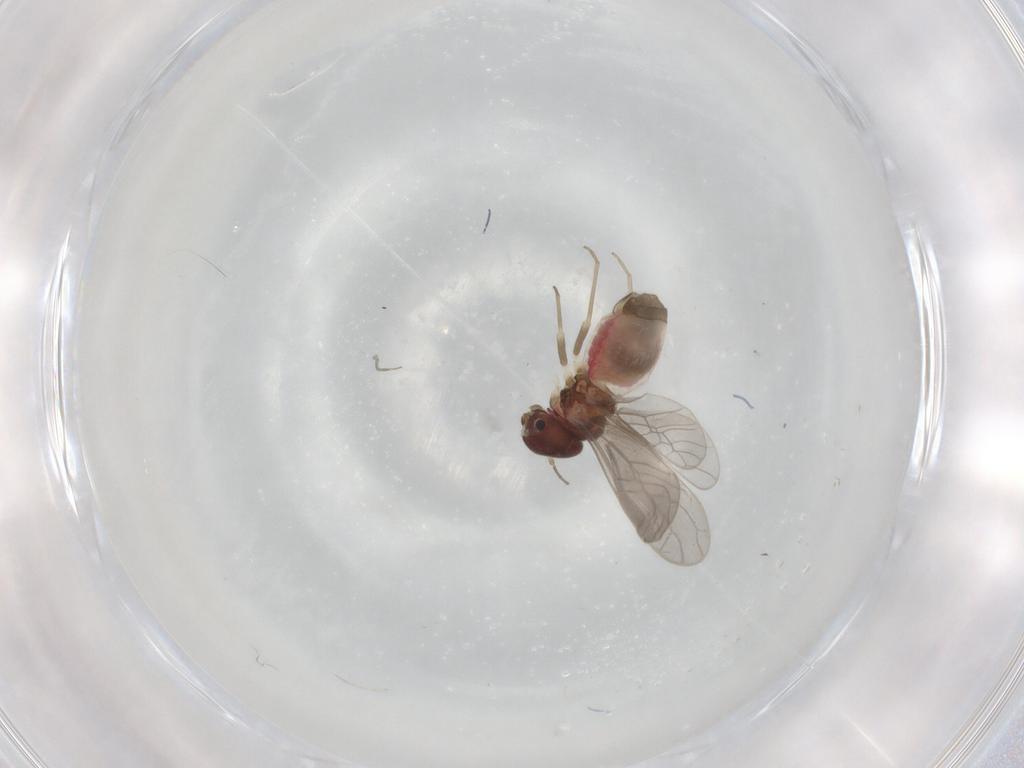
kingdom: Animalia
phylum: Arthropoda
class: Insecta
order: Psocodea
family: Archipsocidae
